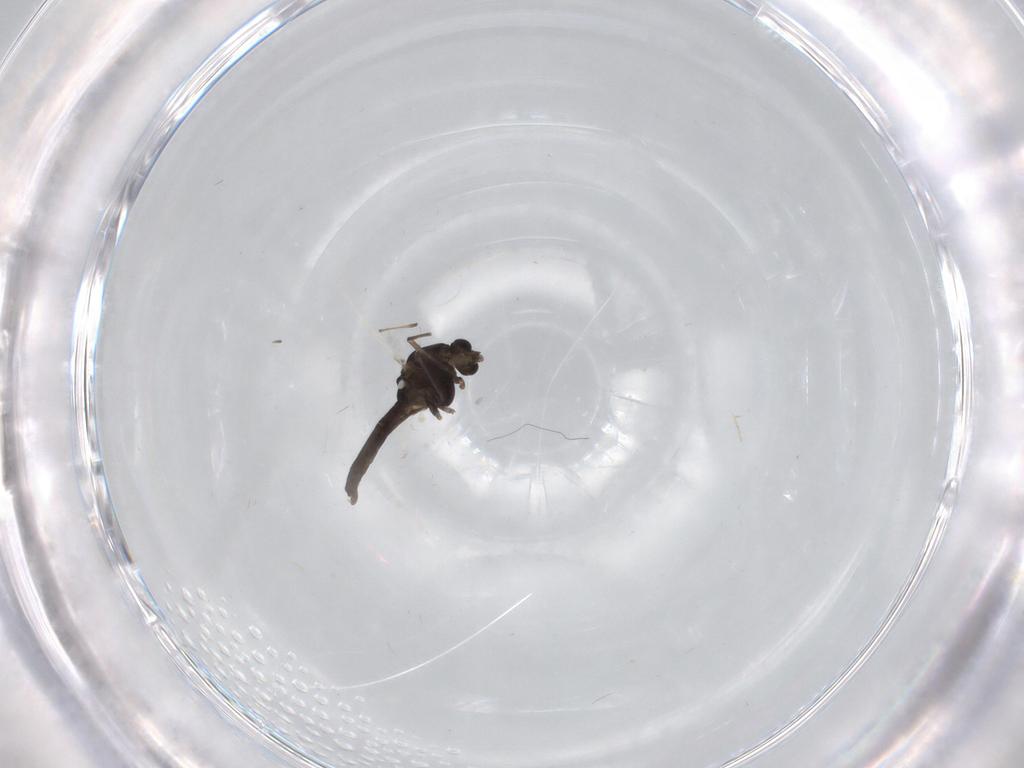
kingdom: Animalia
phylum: Arthropoda
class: Insecta
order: Diptera
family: Chironomidae
